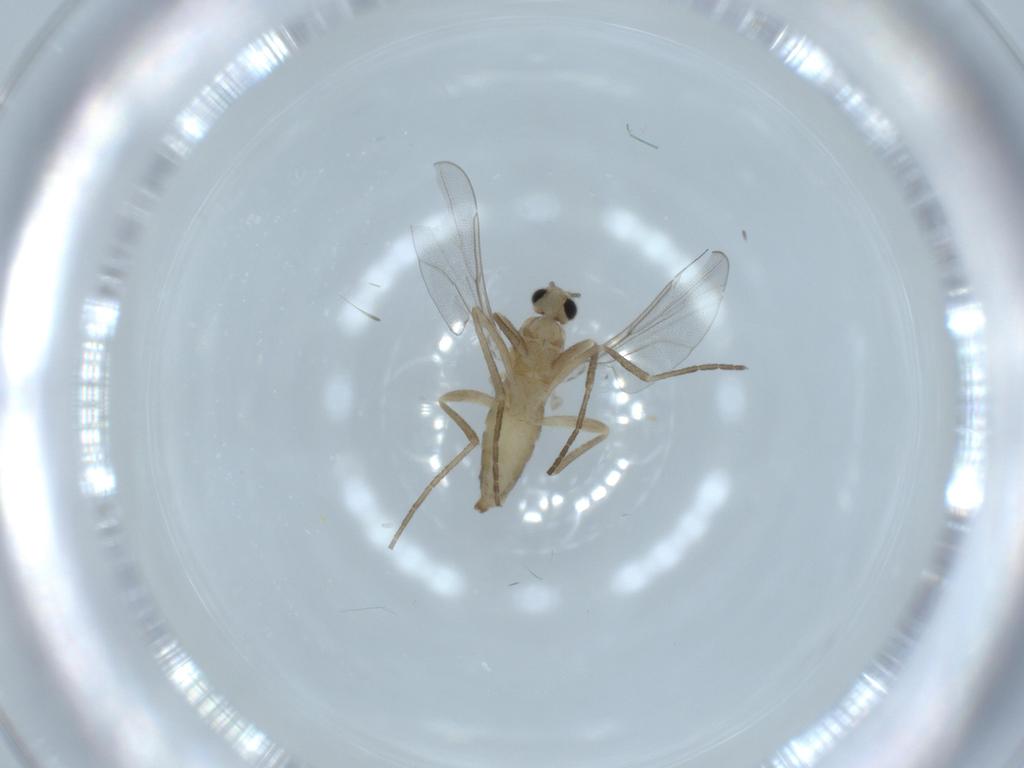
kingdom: Animalia
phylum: Arthropoda
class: Insecta
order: Diptera
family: Cecidomyiidae
